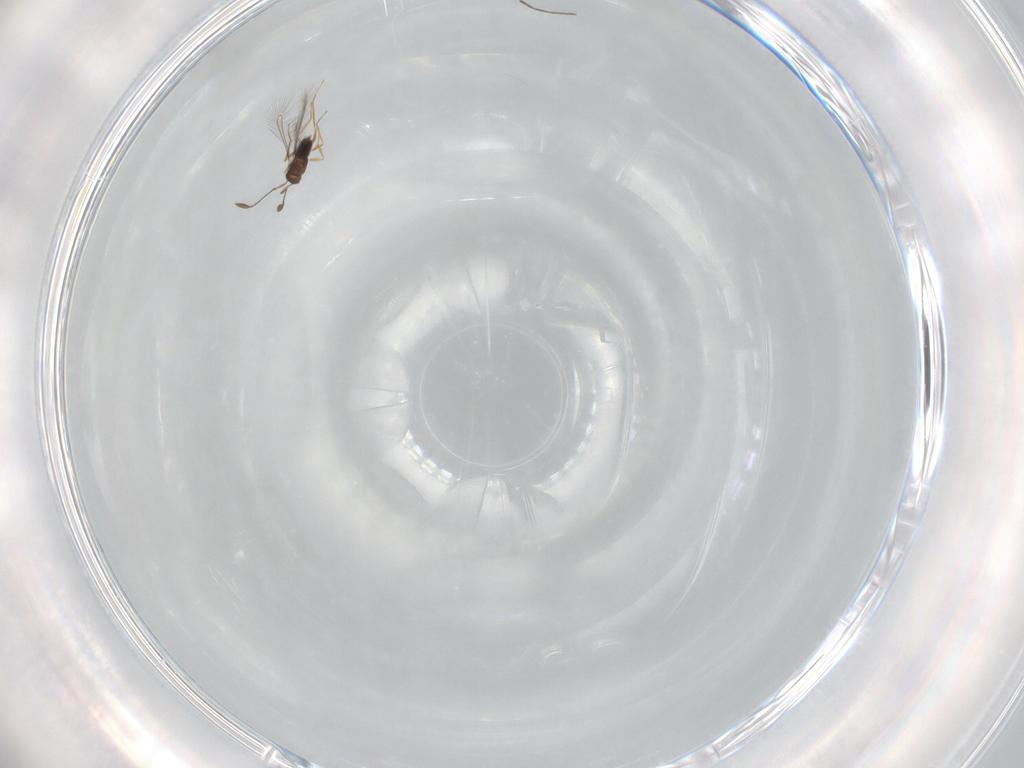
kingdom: Animalia
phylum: Arthropoda
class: Insecta
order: Hymenoptera
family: Mymaridae
